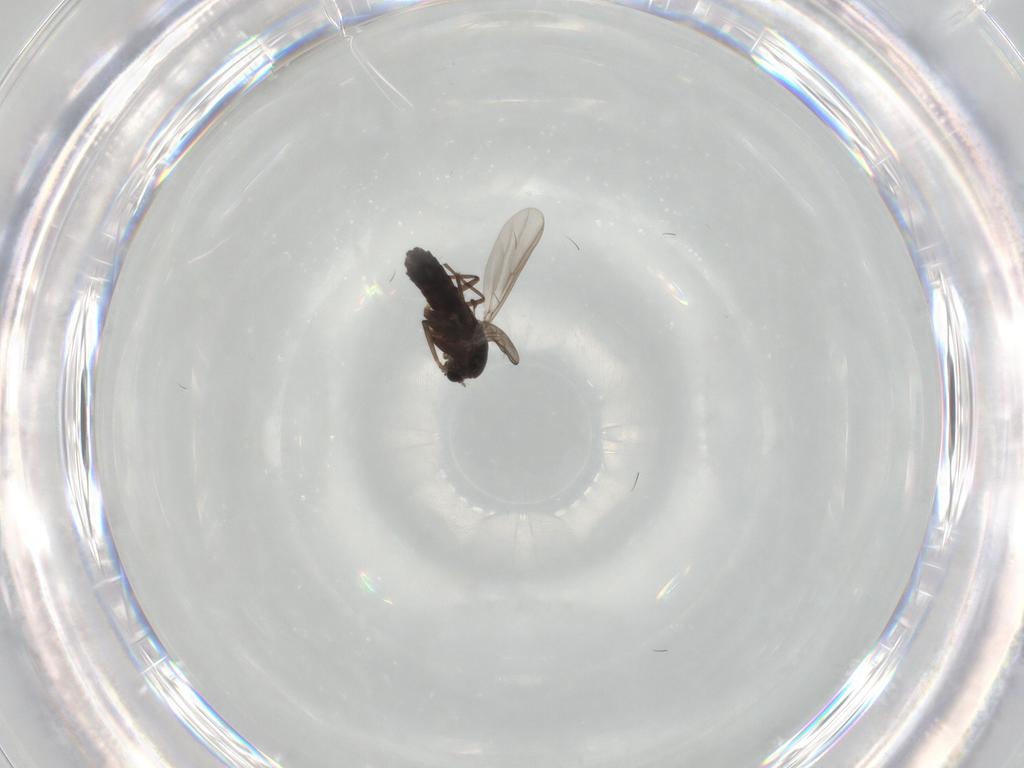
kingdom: Animalia
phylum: Arthropoda
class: Insecta
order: Diptera
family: Chironomidae
